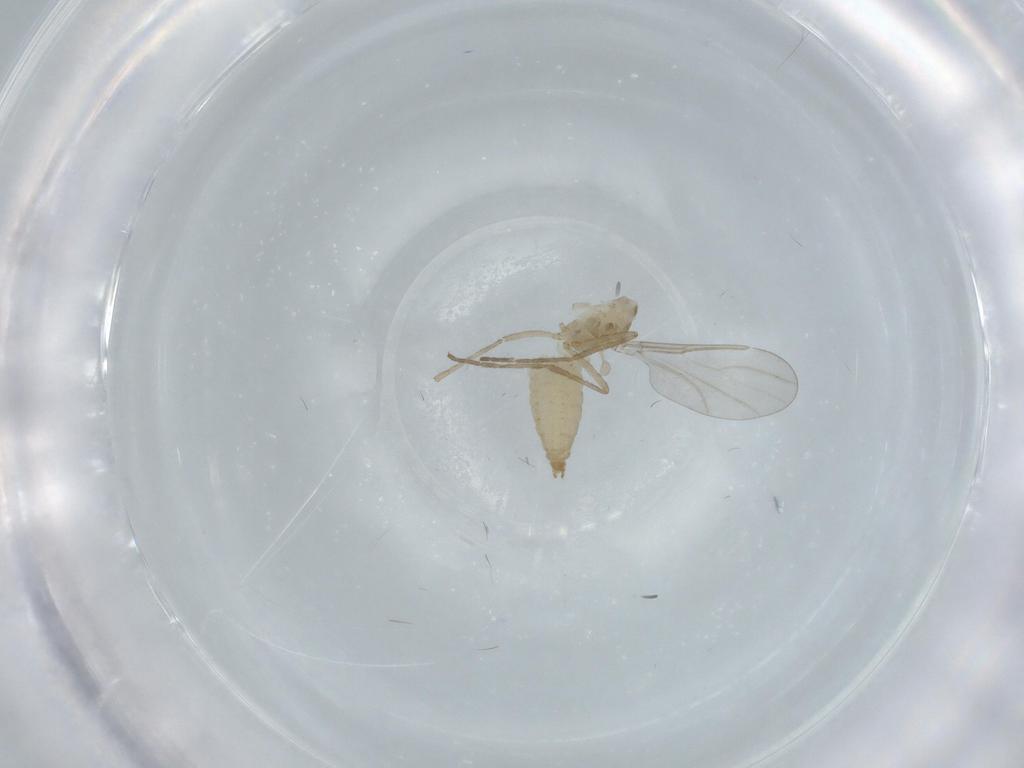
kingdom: Animalia
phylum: Arthropoda
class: Insecta
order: Diptera
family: Cecidomyiidae
